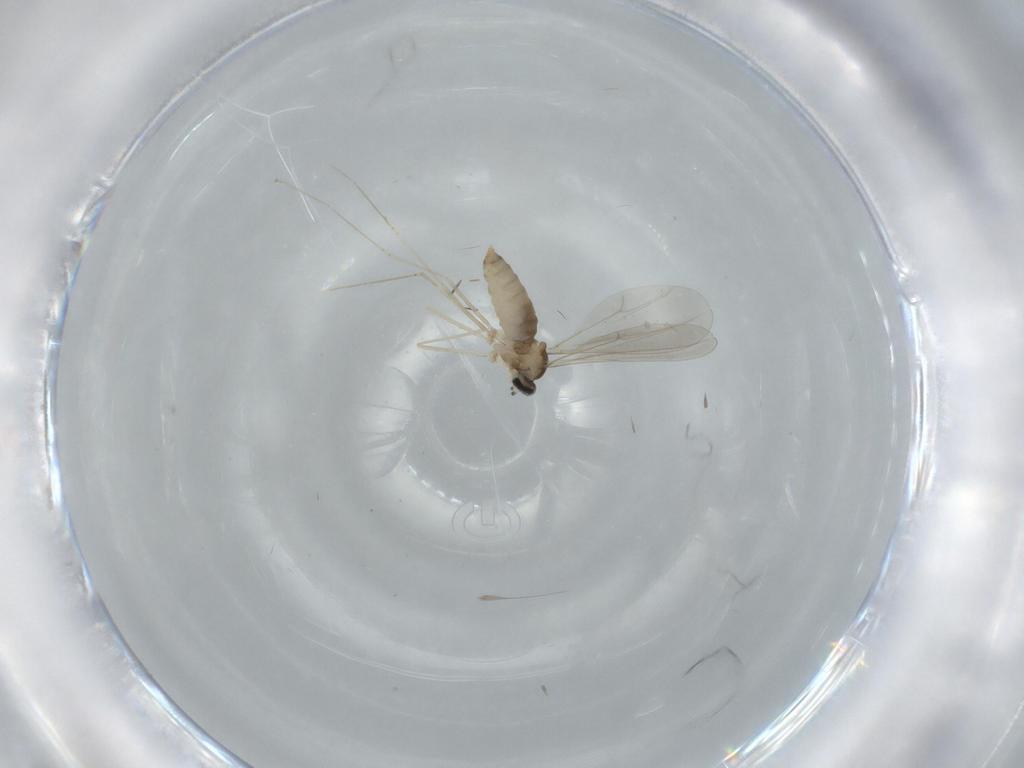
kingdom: Animalia
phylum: Arthropoda
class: Insecta
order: Diptera
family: Cecidomyiidae
